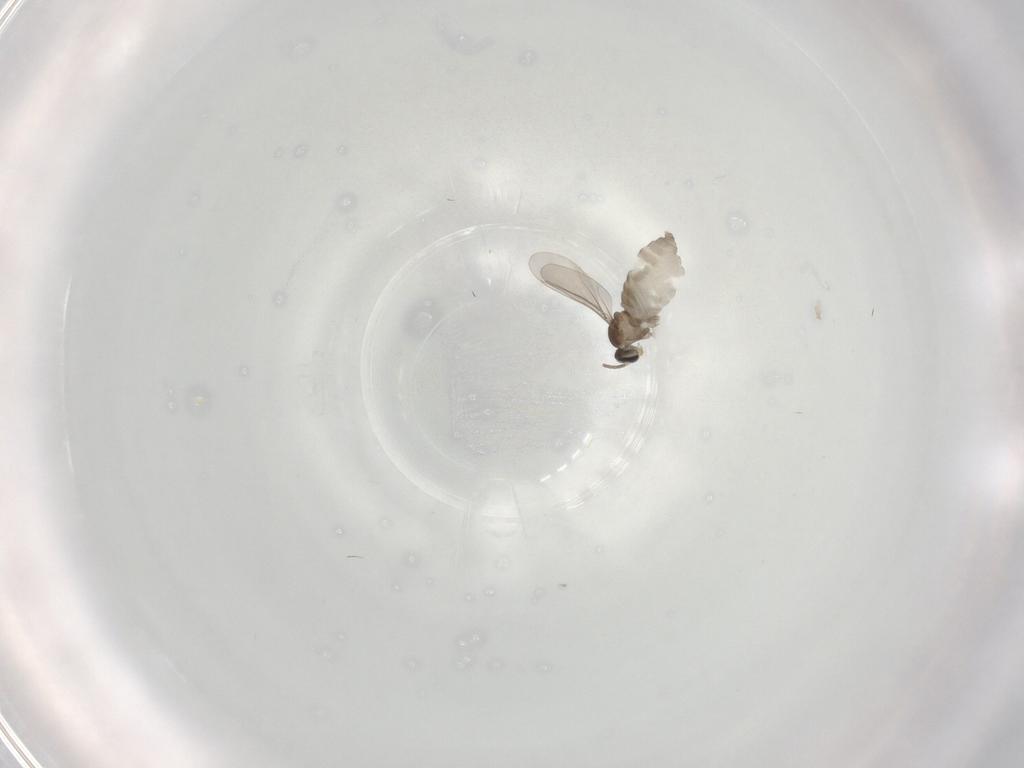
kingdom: Animalia
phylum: Arthropoda
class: Insecta
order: Diptera
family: Cecidomyiidae
